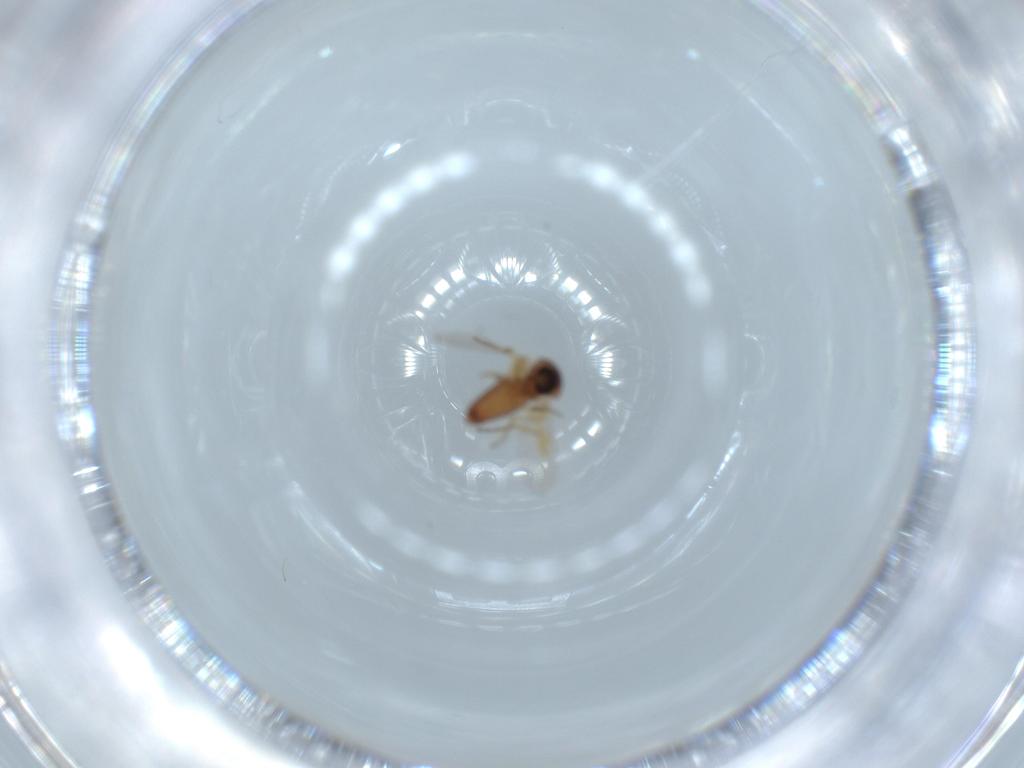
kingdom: Animalia
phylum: Arthropoda
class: Insecta
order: Diptera
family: Ceratopogonidae
